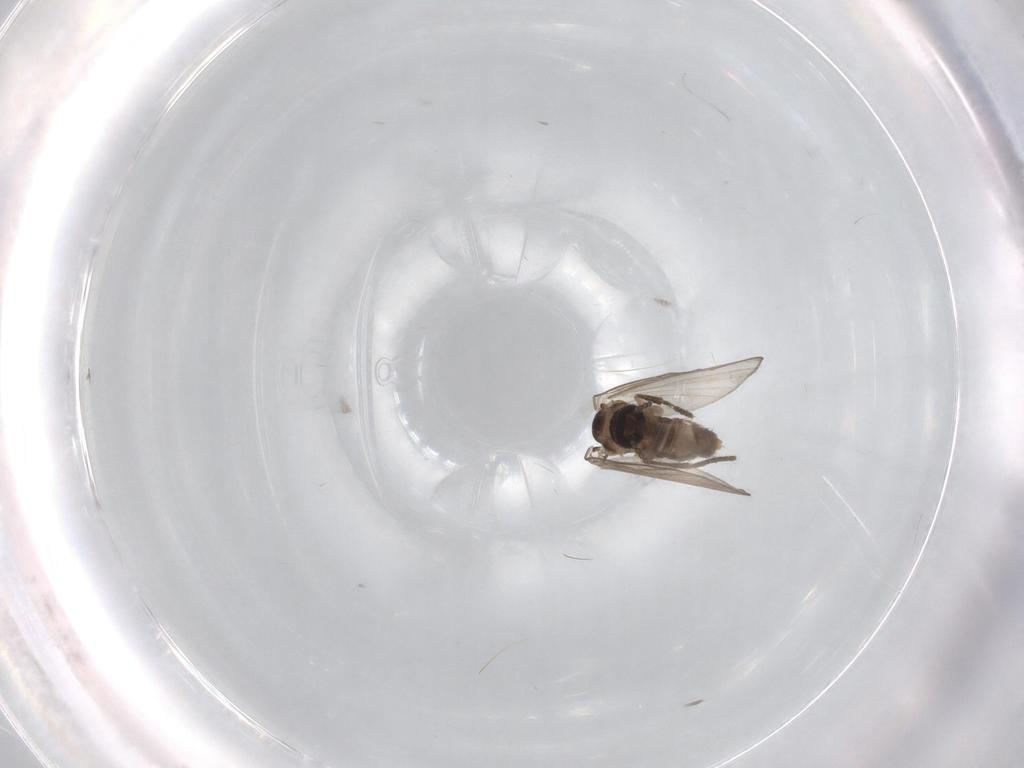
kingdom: Animalia
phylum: Arthropoda
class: Insecta
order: Diptera
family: Psychodidae
